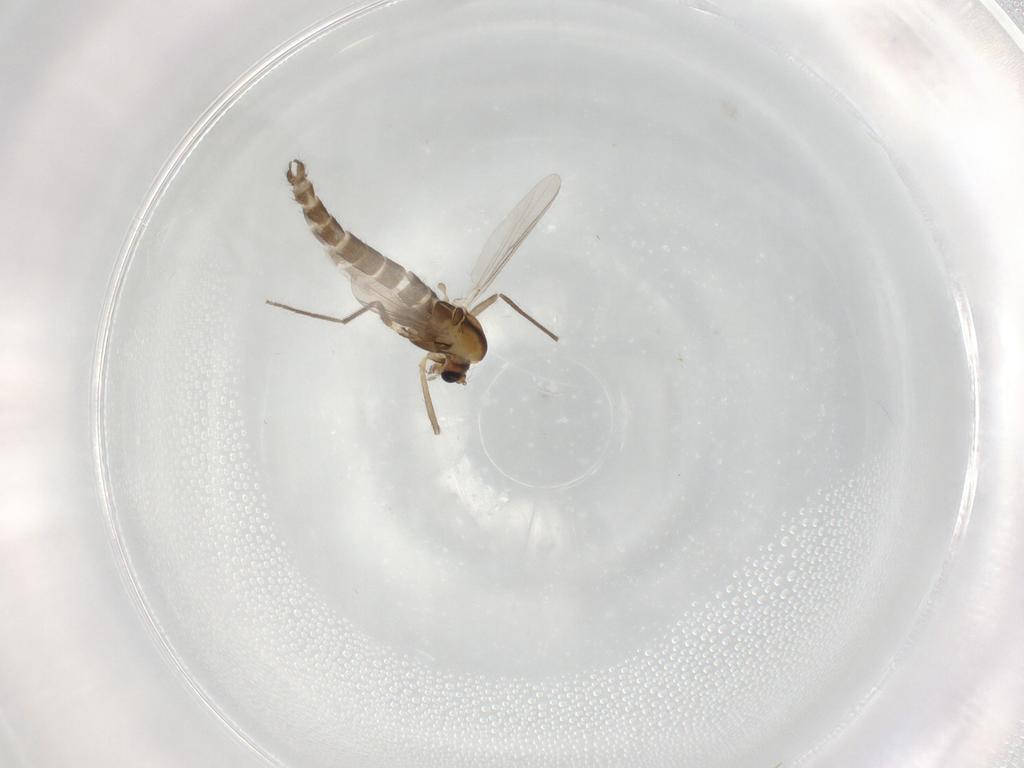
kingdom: Animalia
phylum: Arthropoda
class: Insecta
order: Diptera
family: Chironomidae
